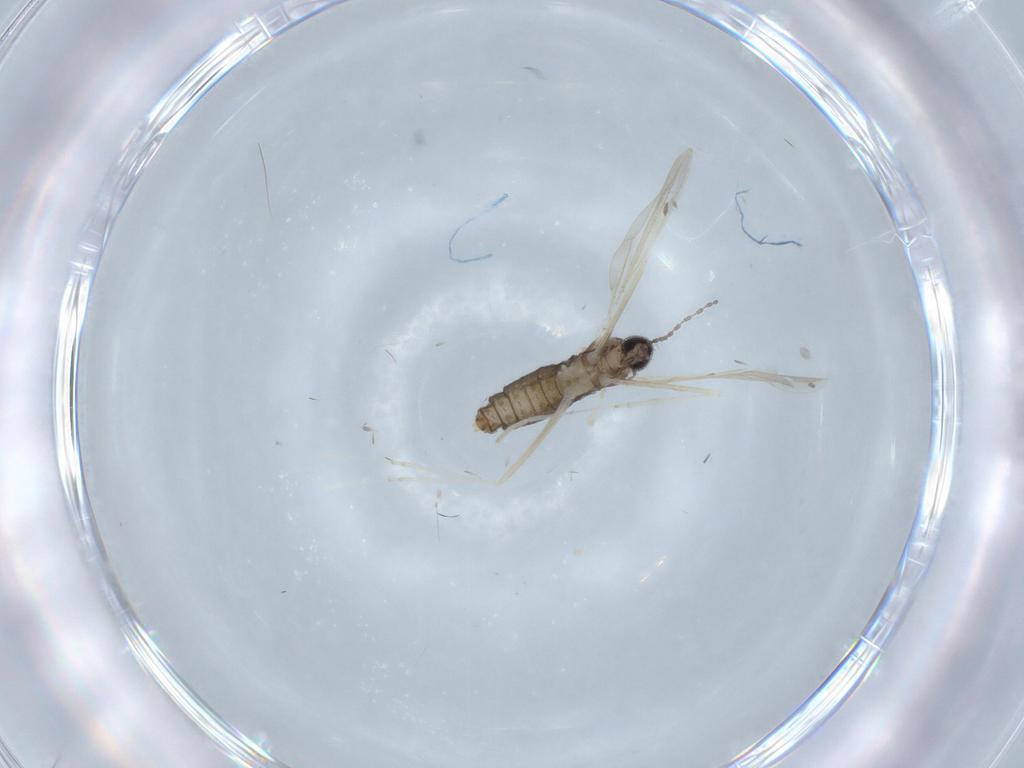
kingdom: Animalia
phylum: Arthropoda
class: Insecta
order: Diptera
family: Cecidomyiidae
